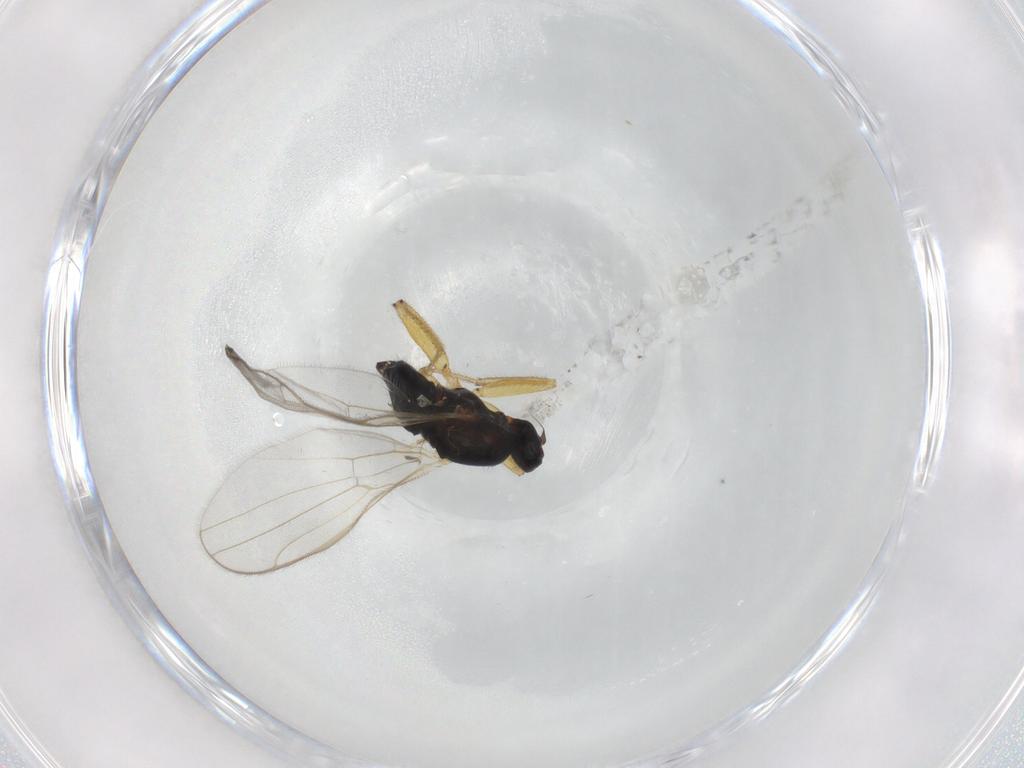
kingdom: Animalia
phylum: Arthropoda
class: Insecta
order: Diptera
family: Hybotidae
